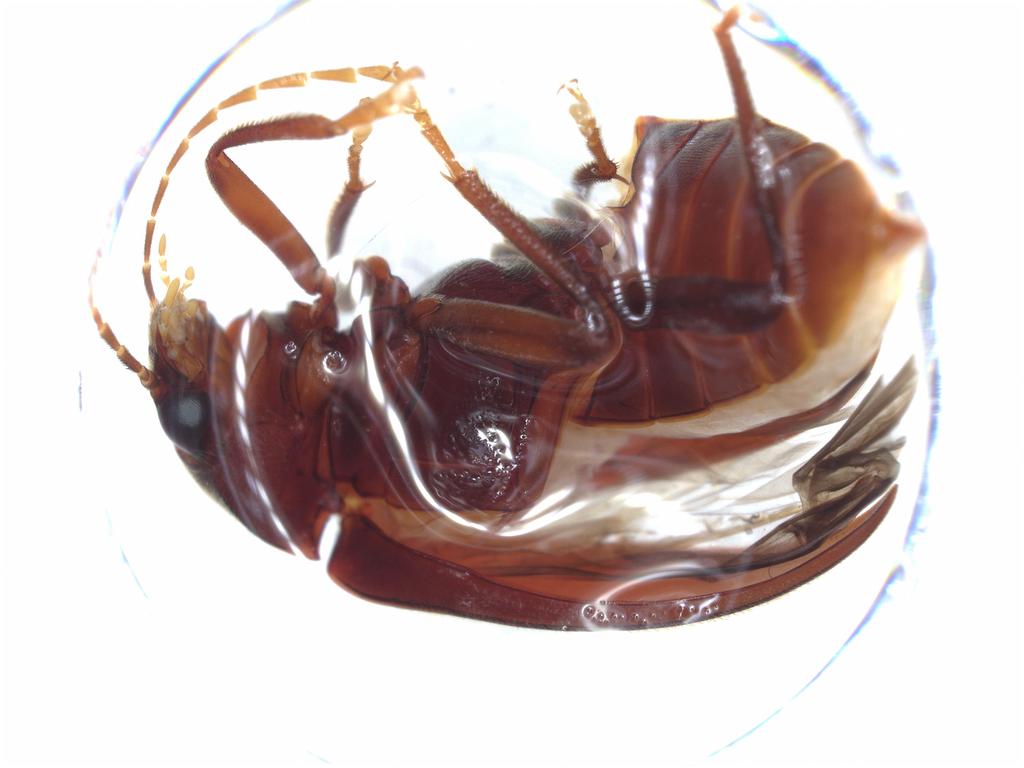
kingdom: Animalia
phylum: Arthropoda
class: Insecta
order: Coleoptera
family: Ptilodactylidae
